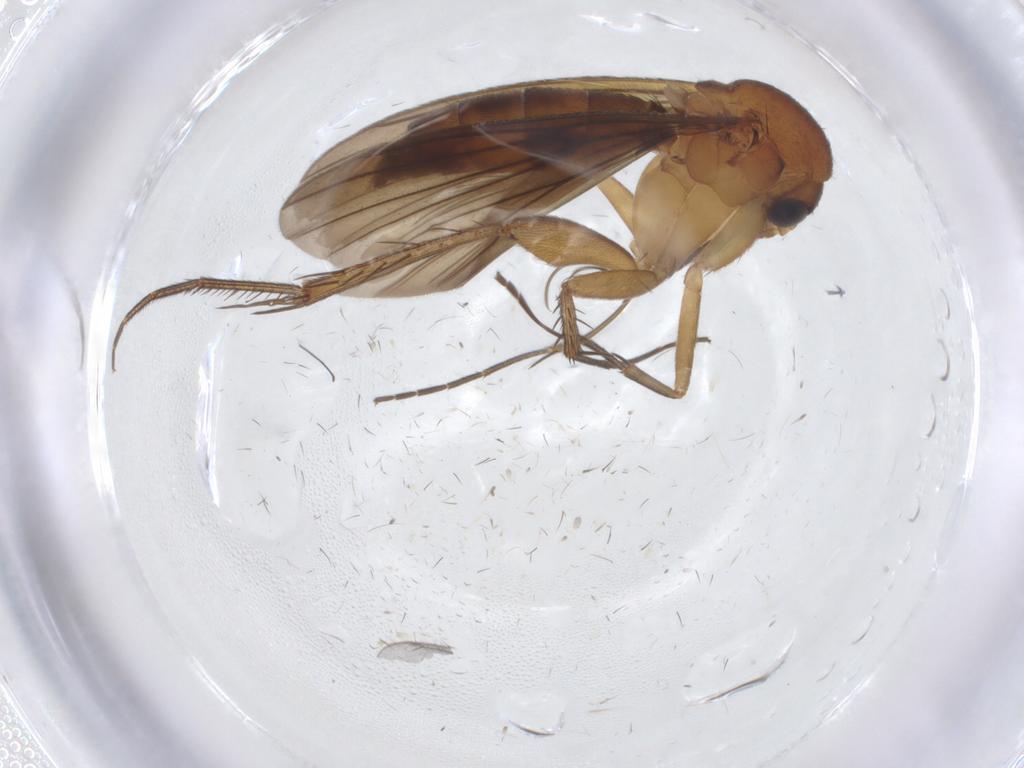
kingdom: Animalia
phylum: Arthropoda
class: Insecta
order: Diptera
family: Mycetophilidae
